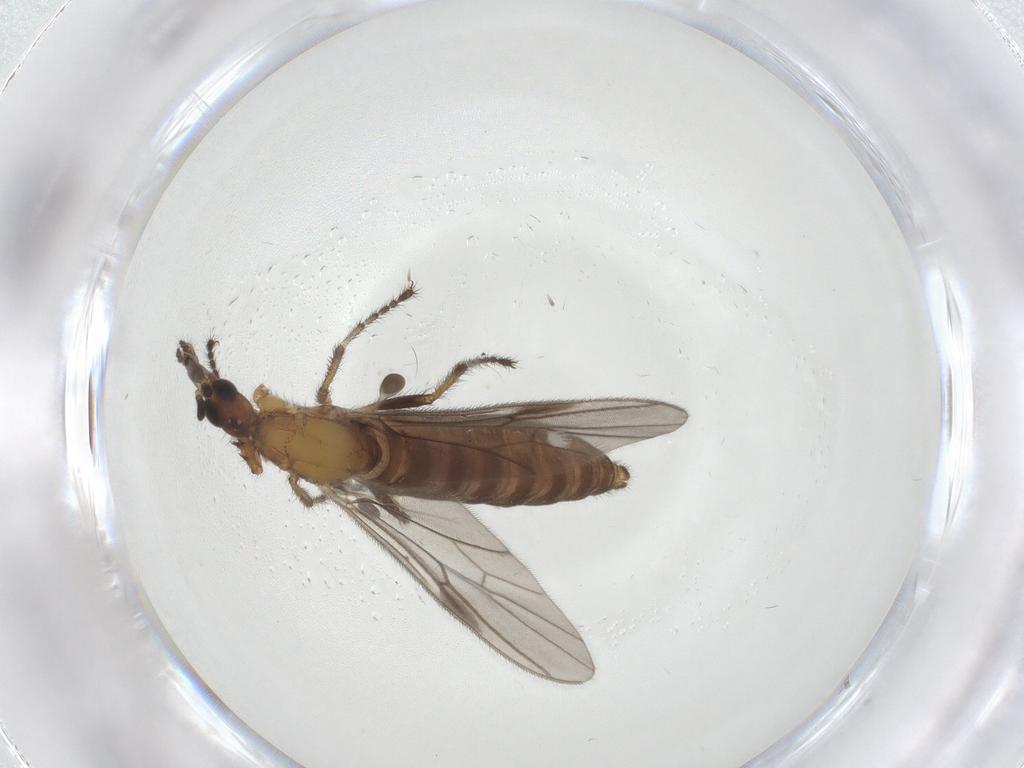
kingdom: Animalia
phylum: Arthropoda
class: Insecta
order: Diptera
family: Bibionidae
